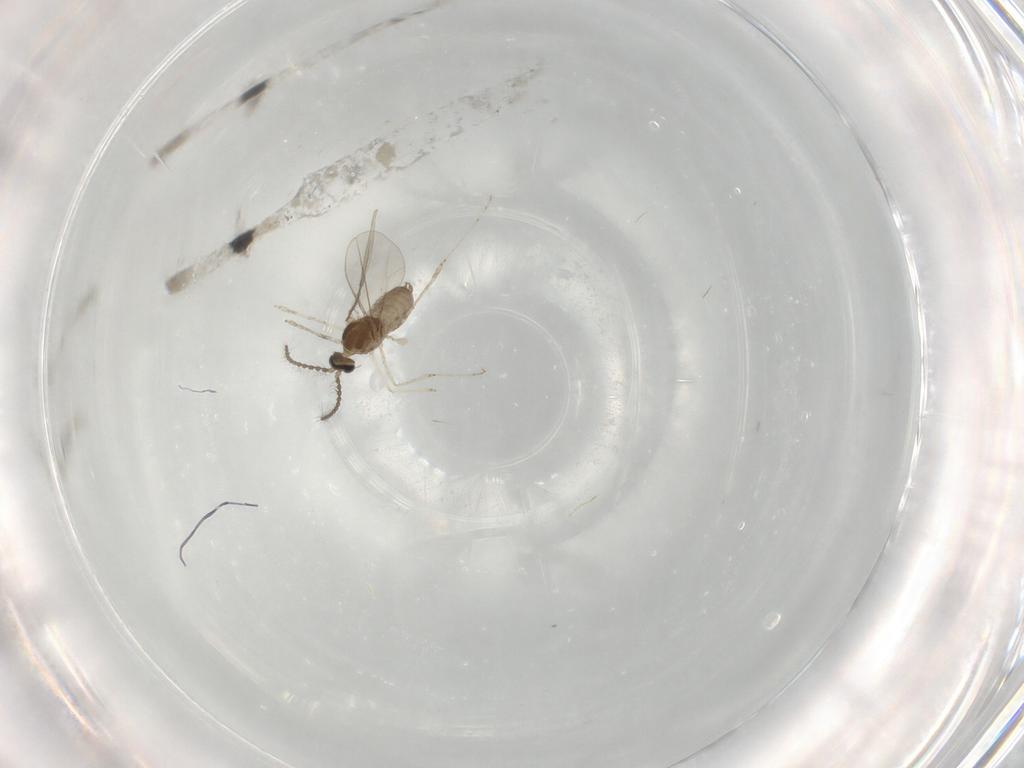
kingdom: Animalia
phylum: Arthropoda
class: Insecta
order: Diptera
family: Cecidomyiidae
